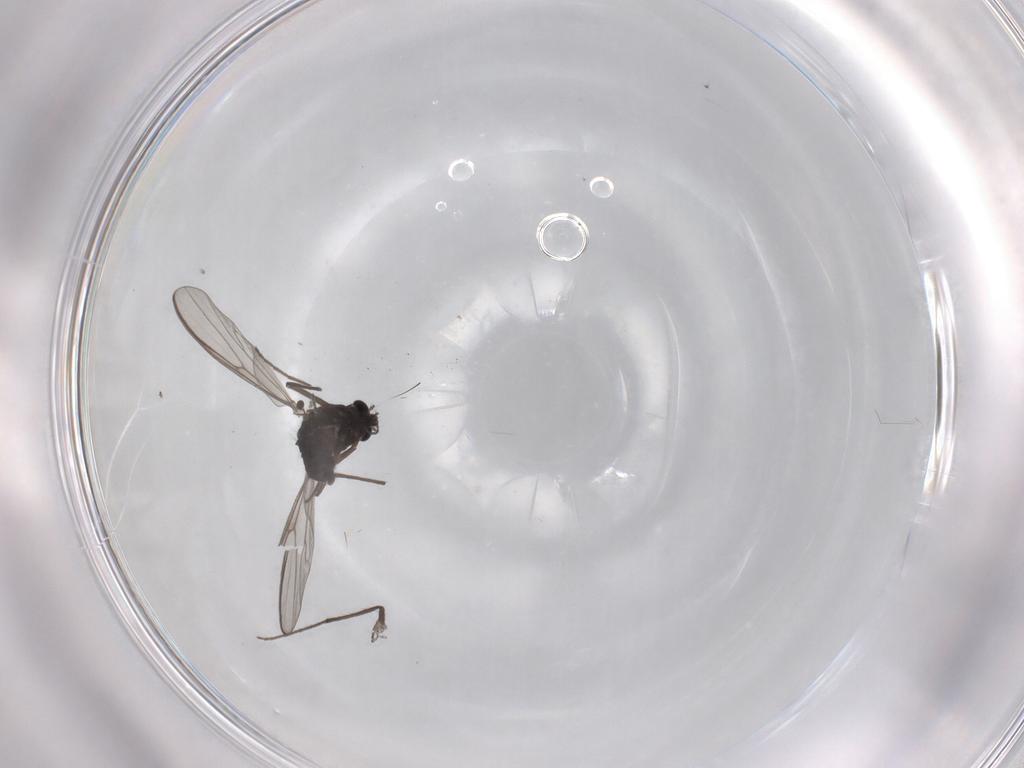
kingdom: Animalia
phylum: Arthropoda
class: Insecta
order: Diptera
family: Chironomidae
